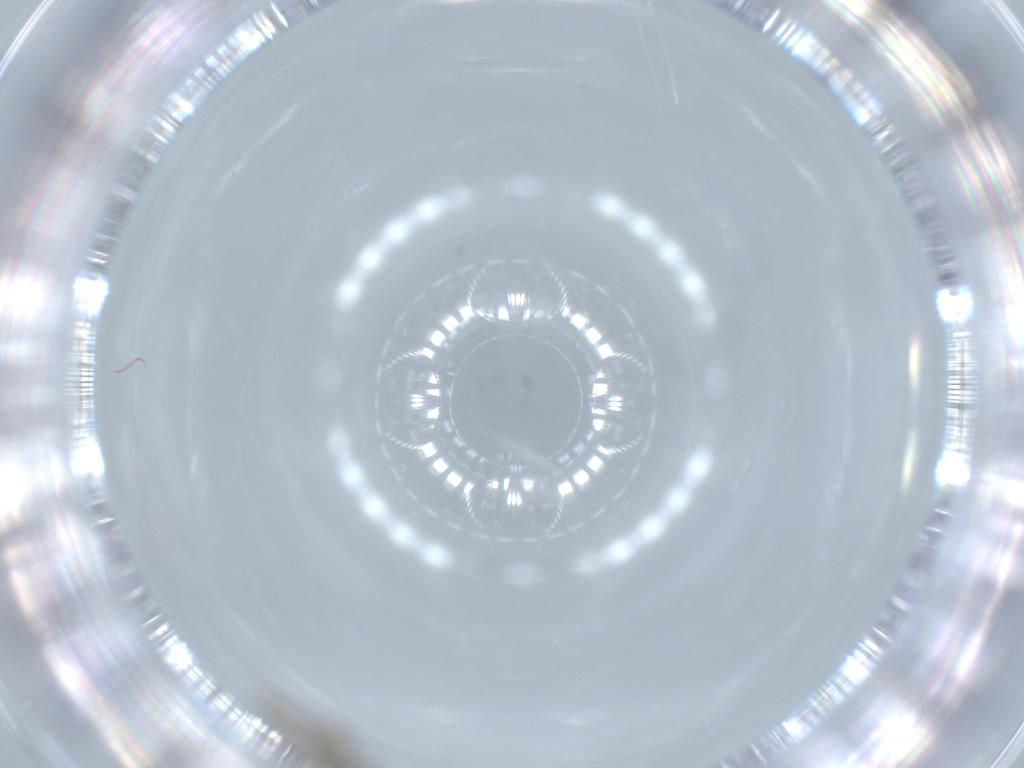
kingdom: Animalia
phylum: Arthropoda
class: Insecta
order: Diptera
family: Cecidomyiidae
